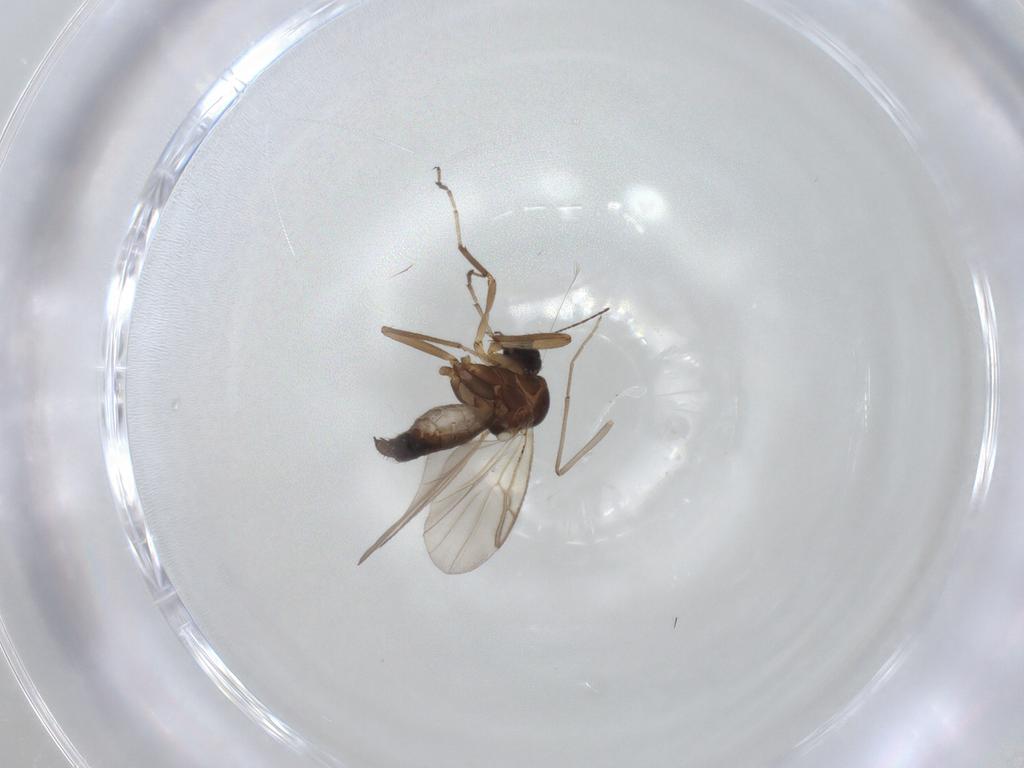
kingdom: Animalia
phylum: Arthropoda
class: Insecta
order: Diptera
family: Ceratopogonidae
